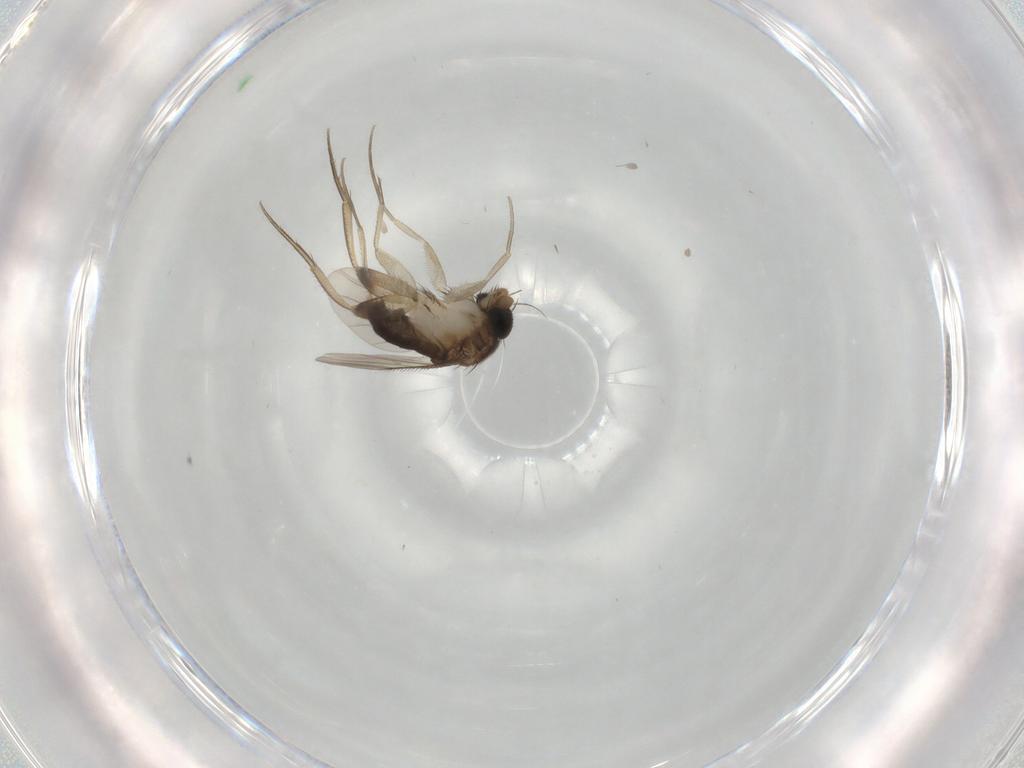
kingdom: Animalia
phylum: Arthropoda
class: Insecta
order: Diptera
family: Phoridae
